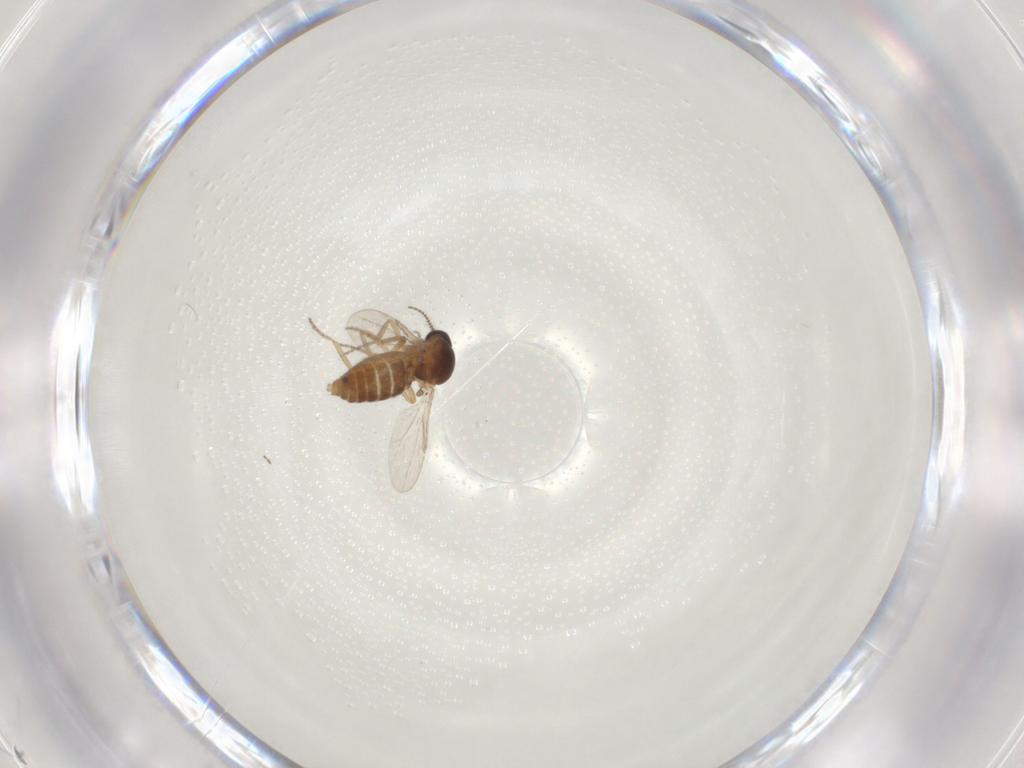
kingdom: Animalia
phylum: Arthropoda
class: Insecta
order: Diptera
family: Ceratopogonidae
